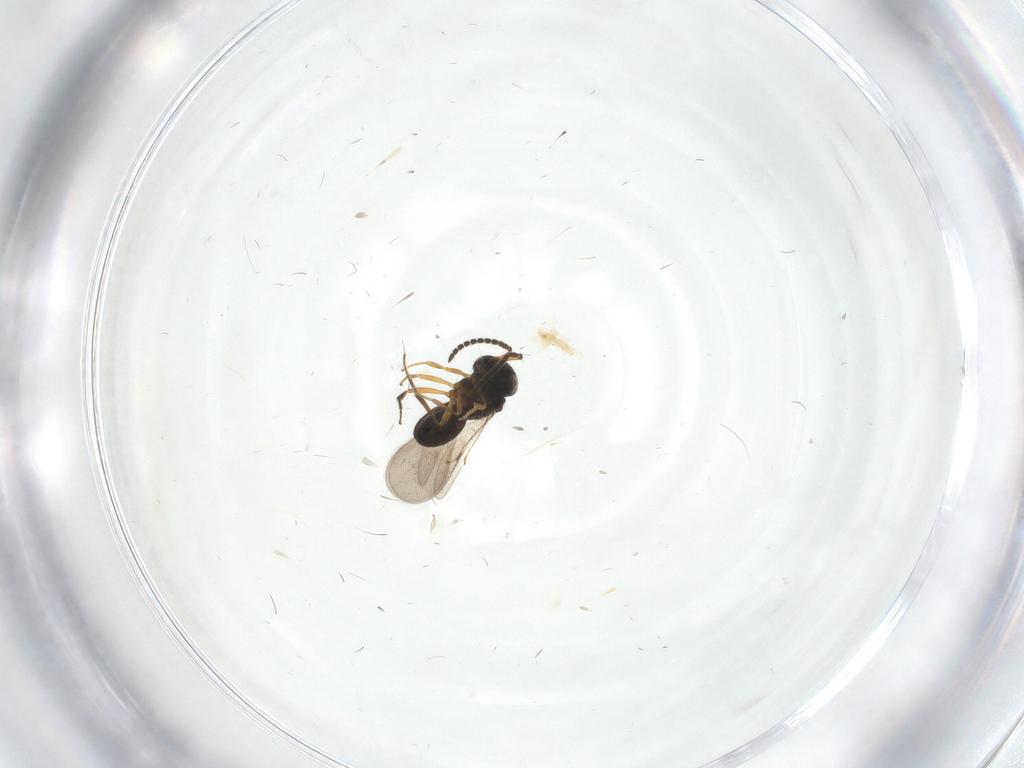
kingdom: Animalia
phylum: Arthropoda
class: Insecta
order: Hymenoptera
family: Scelionidae
